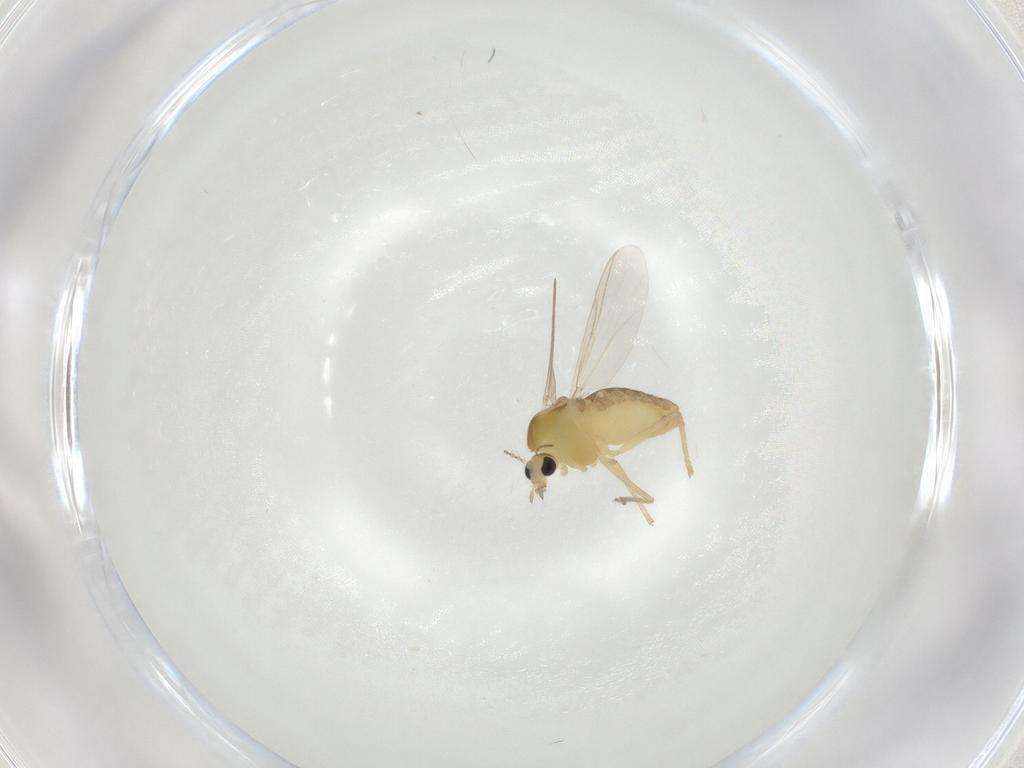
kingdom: Animalia
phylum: Arthropoda
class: Insecta
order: Diptera
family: Chironomidae
